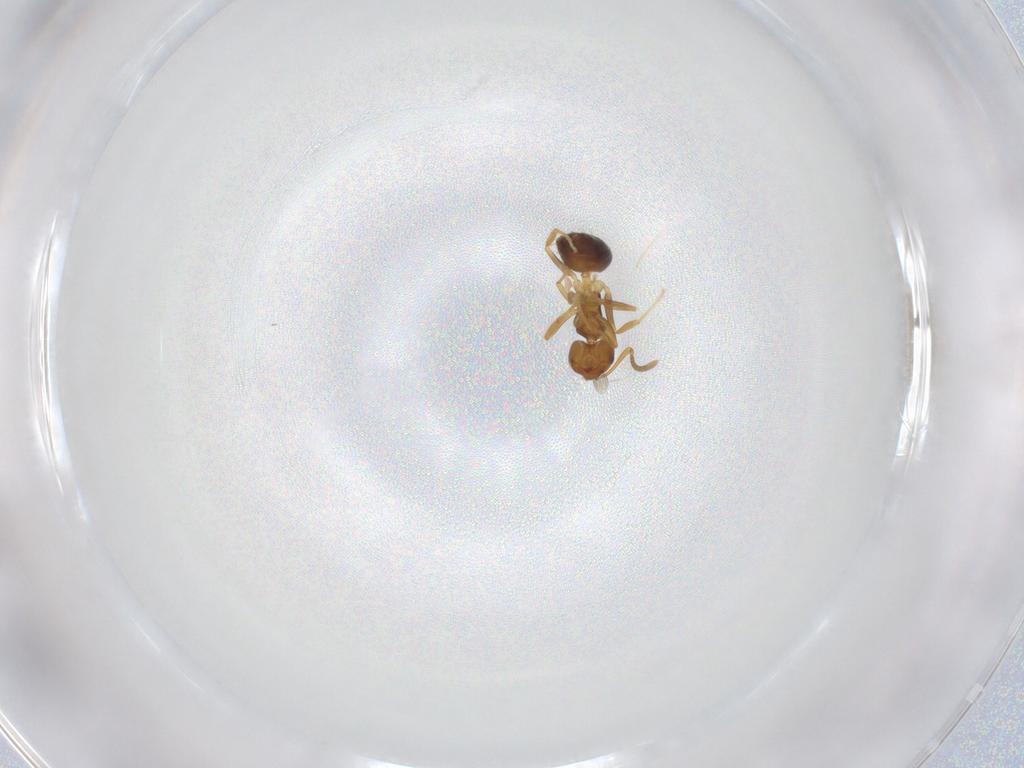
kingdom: Animalia
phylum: Arthropoda
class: Insecta
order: Hymenoptera
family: Formicidae
